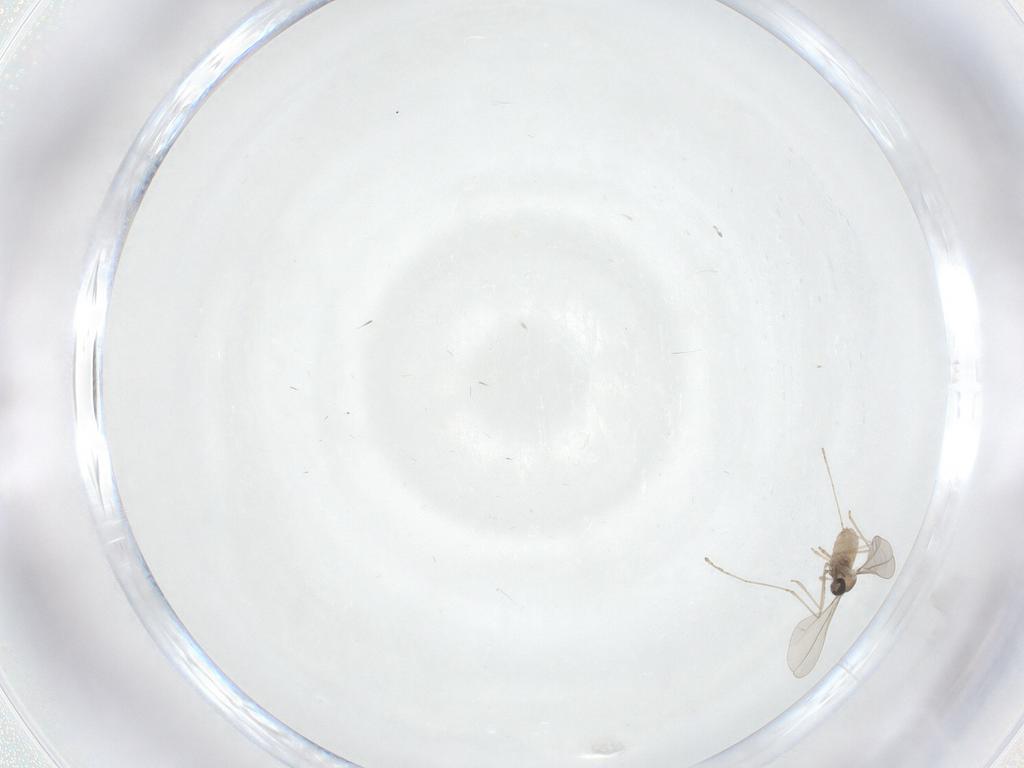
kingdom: Animalia
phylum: Arthropoda
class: Insecta
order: Diptera
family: Cecidomyiidae
